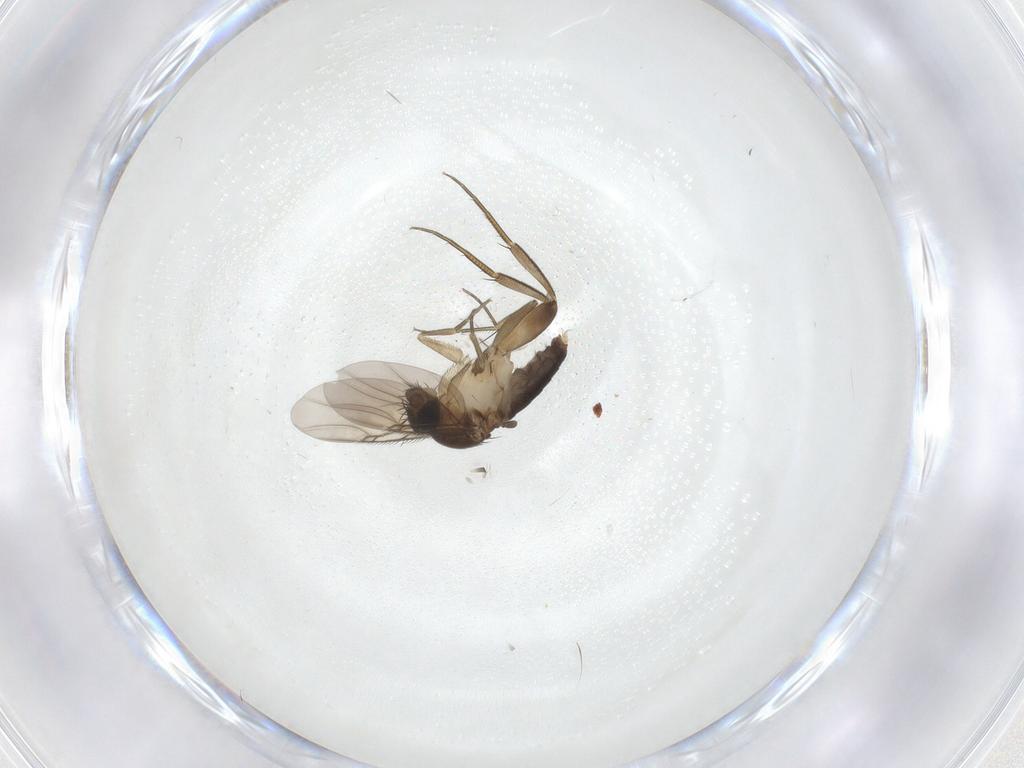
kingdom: Animalia
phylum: Arthropoda
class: Insecta
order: Diptera
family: Phoridae
